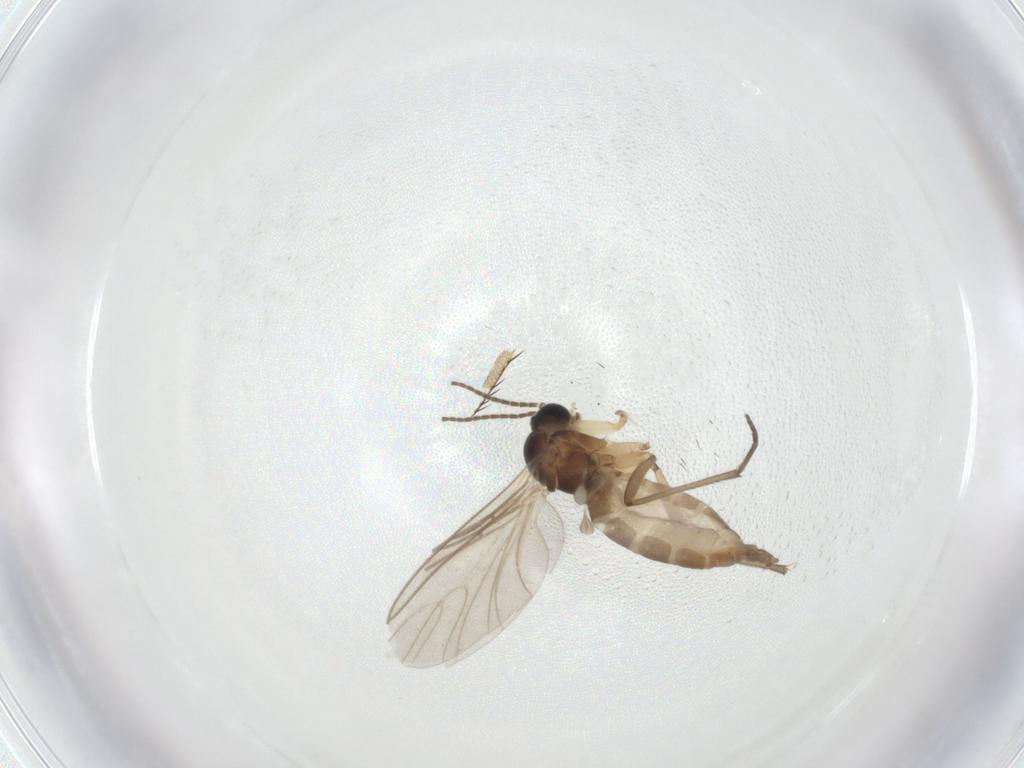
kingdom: Animalia
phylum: Arthropoda
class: Insecta
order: Diptera
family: Sciaridae
